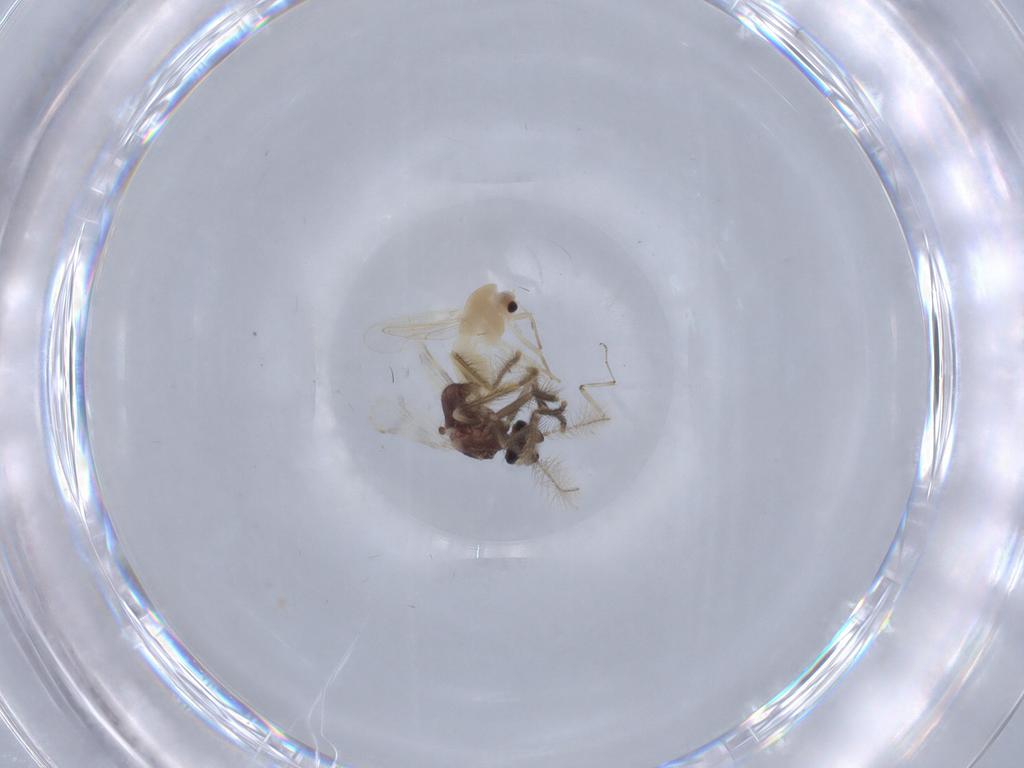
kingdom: Animalia
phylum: Arthropoda
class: Insecta
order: Diptera
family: Chironomidae
